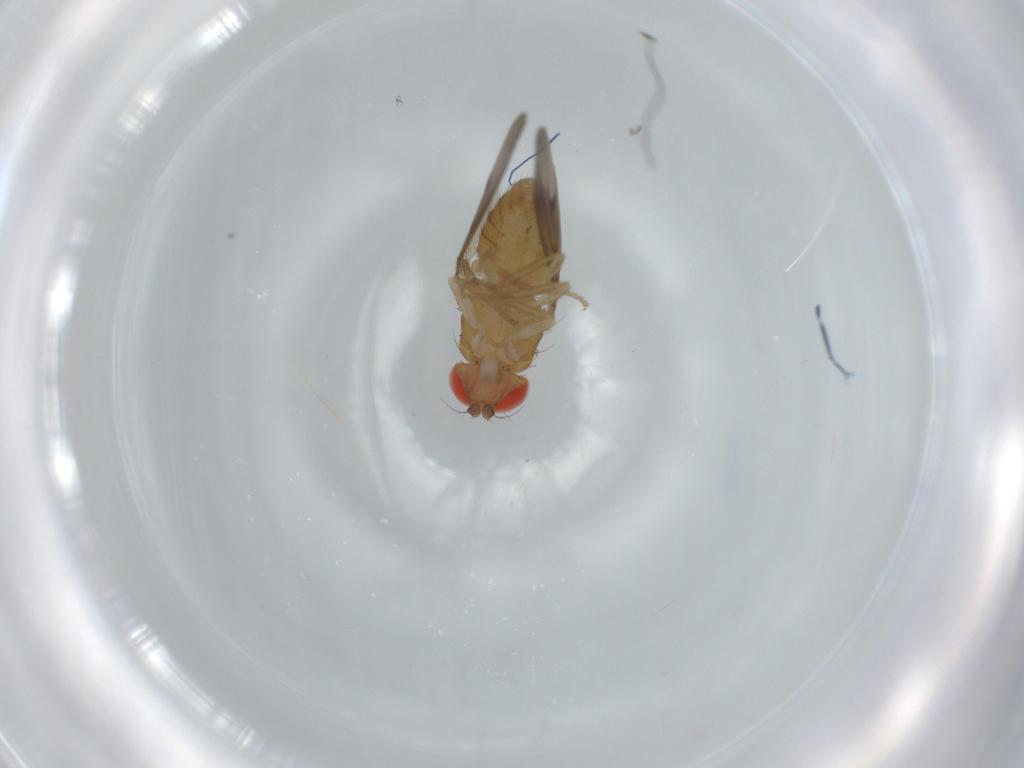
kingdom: Animalia
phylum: Arthropoda
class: Insecta
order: Diptera
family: Drosophilidae
